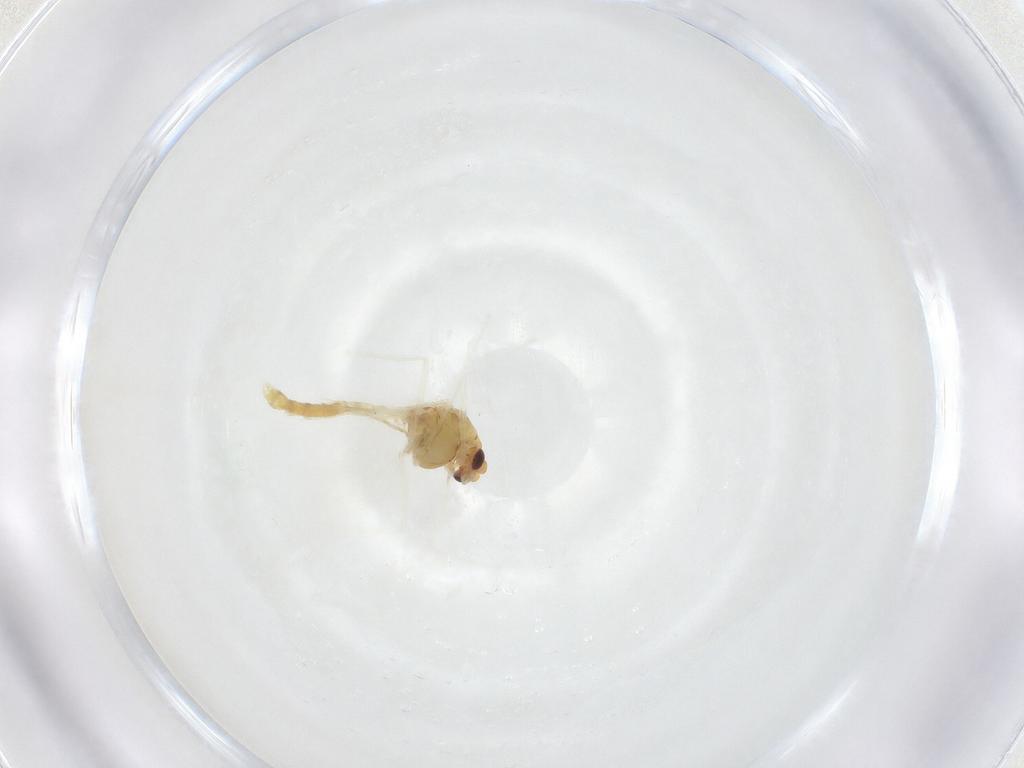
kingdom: Animalia
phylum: Arthropoda
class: Insecta
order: Diptera
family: Chironomidae
